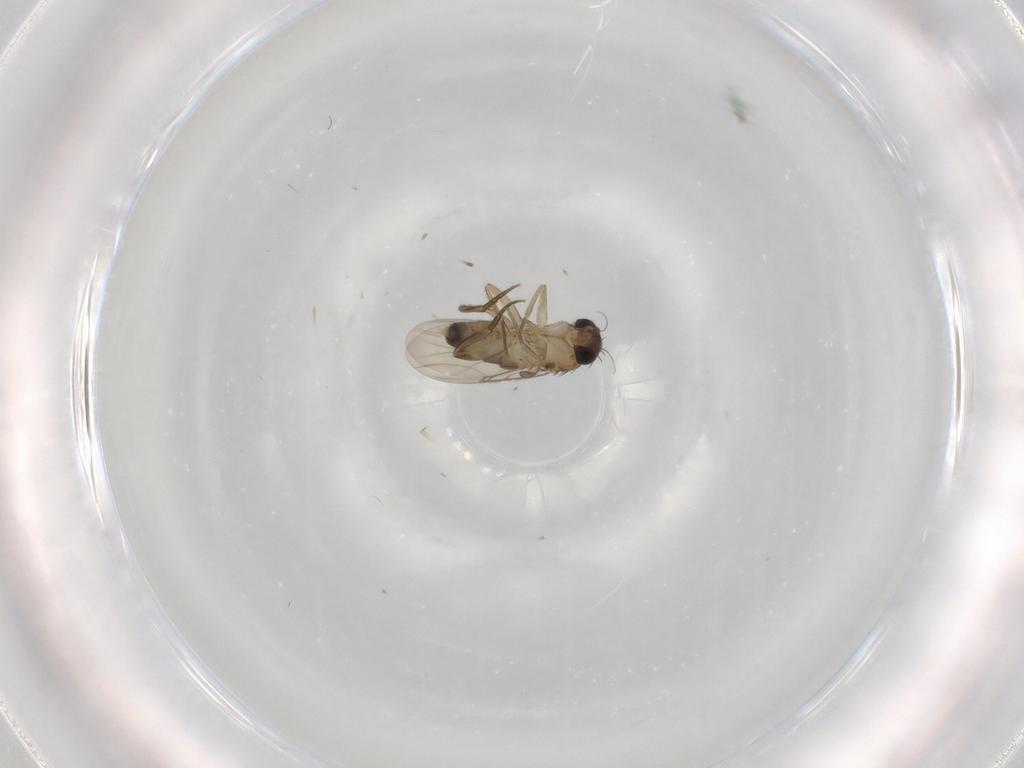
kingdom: Animalia
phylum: Arthropoda
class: Insecta
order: Diptera
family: Phoridae
